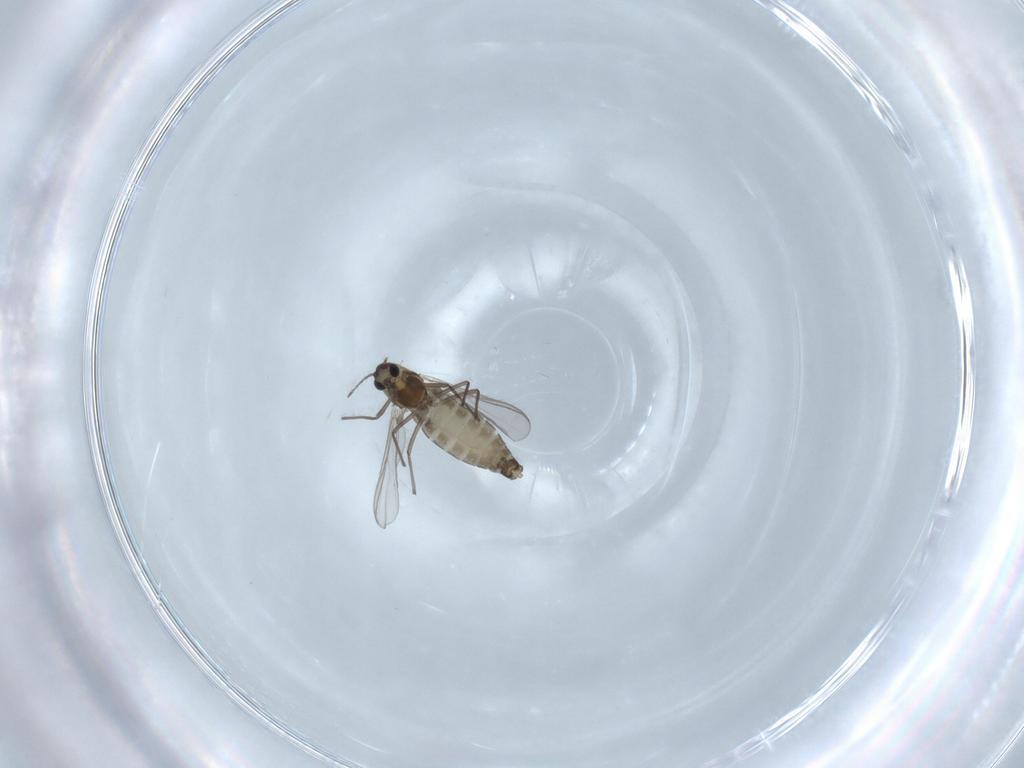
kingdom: Animalia
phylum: Arthropoda
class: Insecta
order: Diptera
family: Chironomidae
